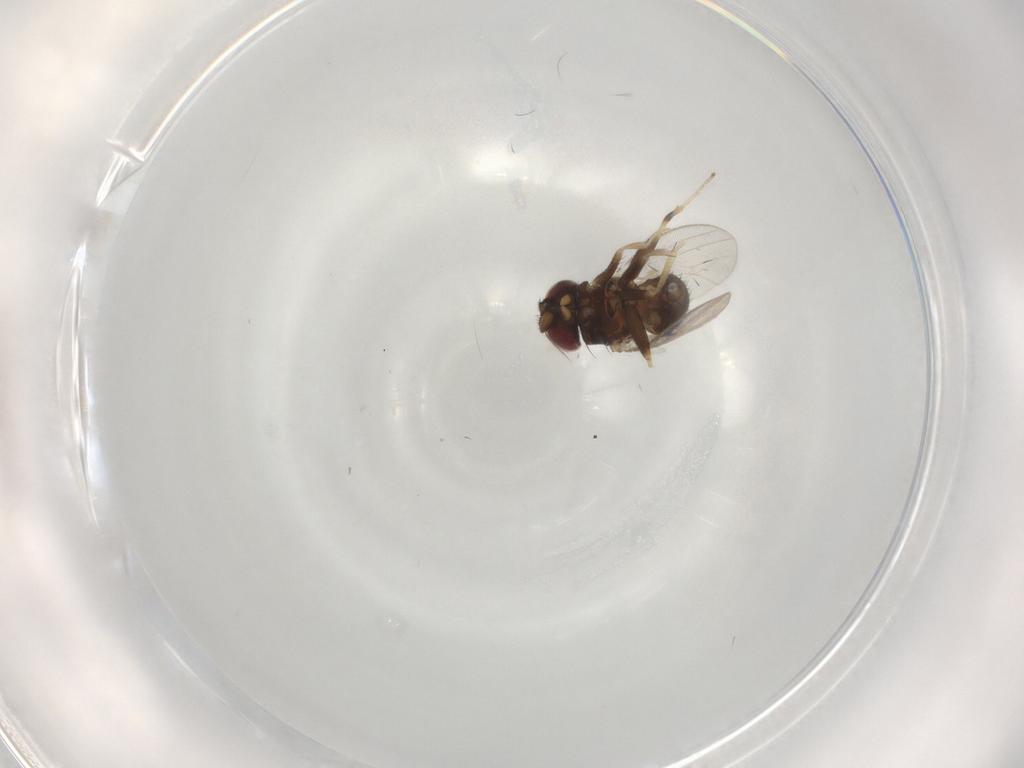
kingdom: Animalia
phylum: Arthropoda
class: Insecta
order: Diptera
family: Milichiidae
